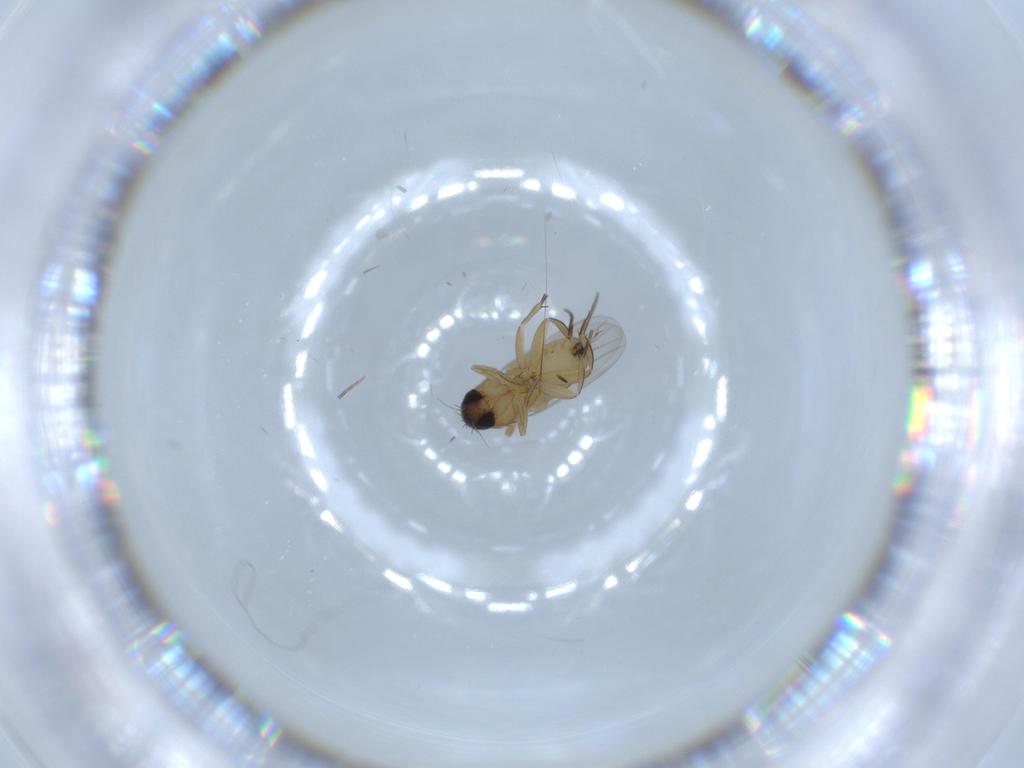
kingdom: Animalia
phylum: Arthropoda
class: Insecta
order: Diptera
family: Phoridae
